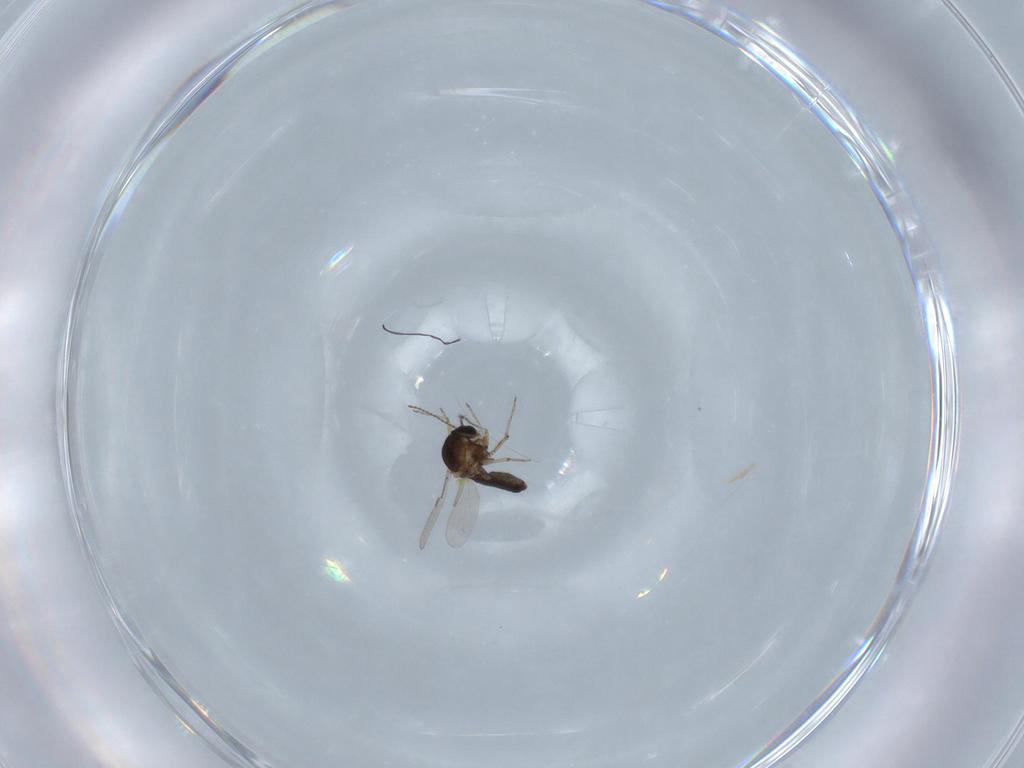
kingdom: Animalia
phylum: Arthropoda
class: Insecta
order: Diptera
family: Ceratopogonidae
